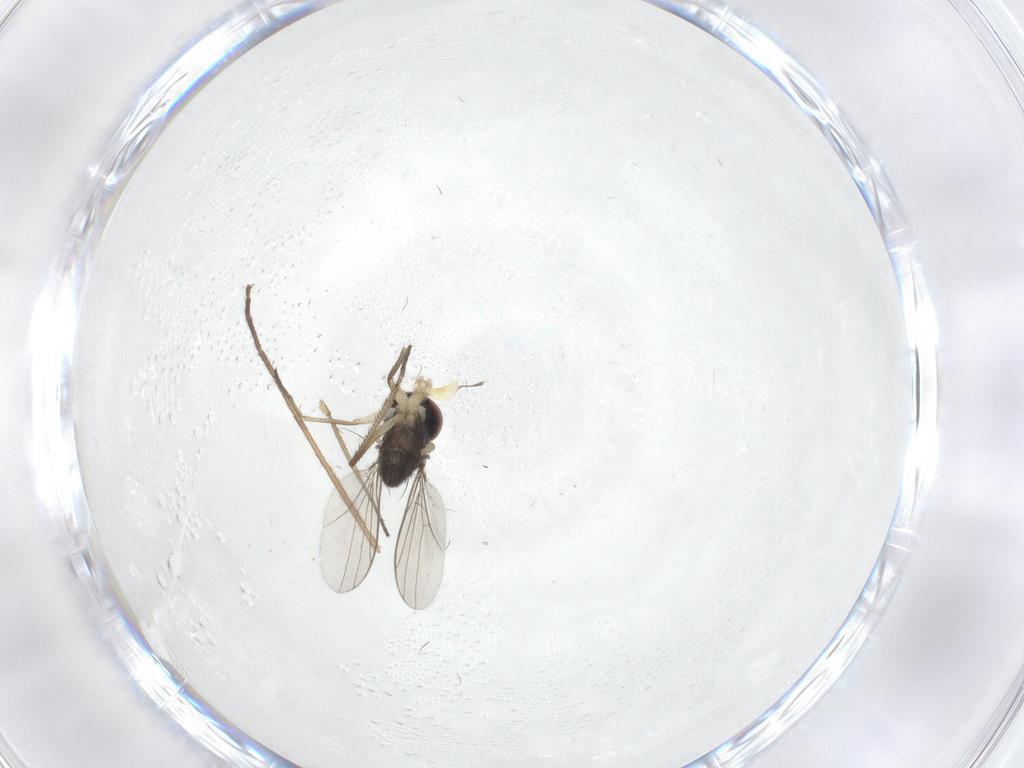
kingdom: Animalia
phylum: Arthropoda
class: Insecta
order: Diptera
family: Dolichopodidae
